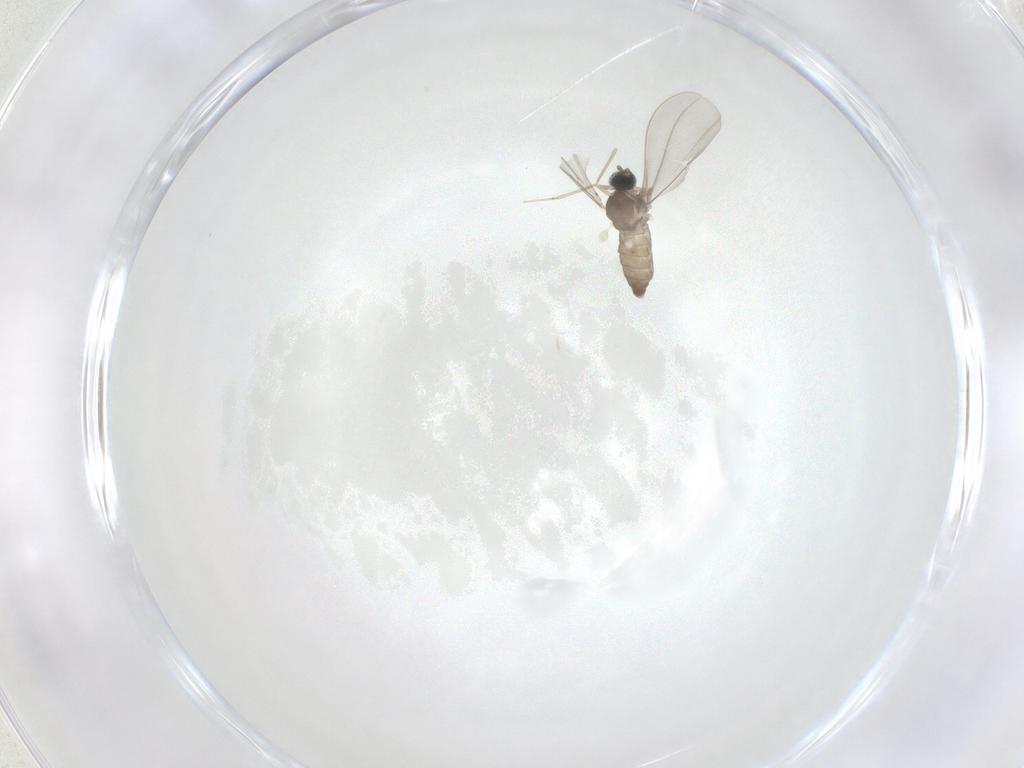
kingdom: Animalia
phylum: Arthropoda
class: Insecta
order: Diptera
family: Cecidomyiidae
